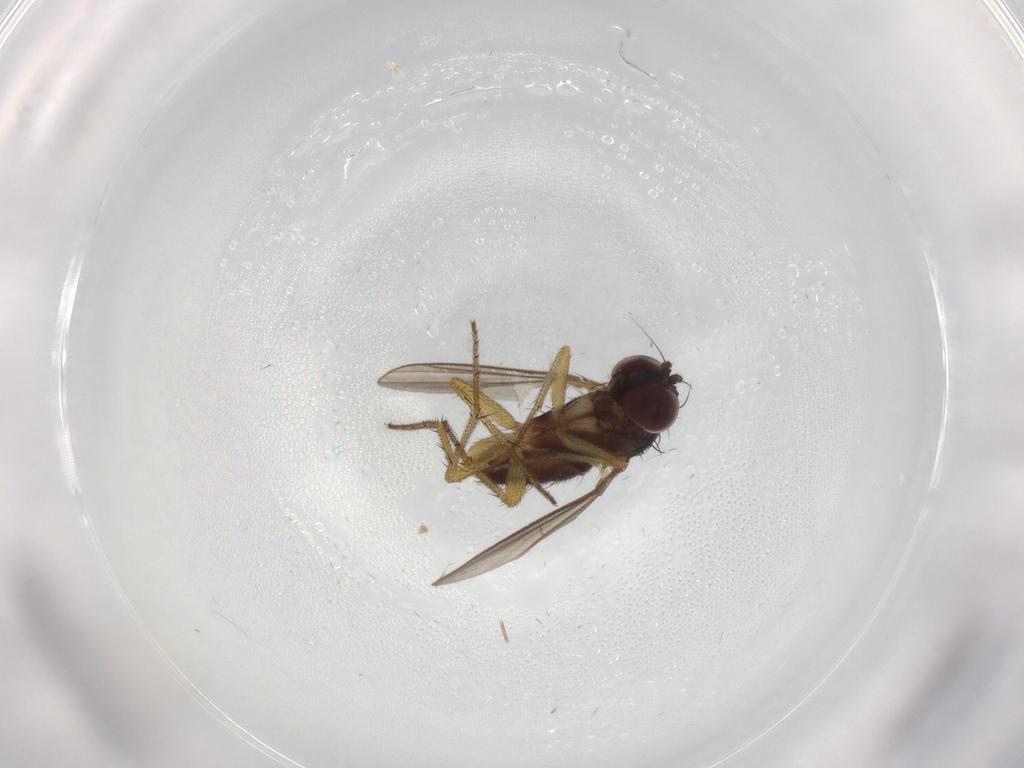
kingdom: Animalia
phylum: Arthropoda
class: Insecta
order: Diptera
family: Sciaridae
